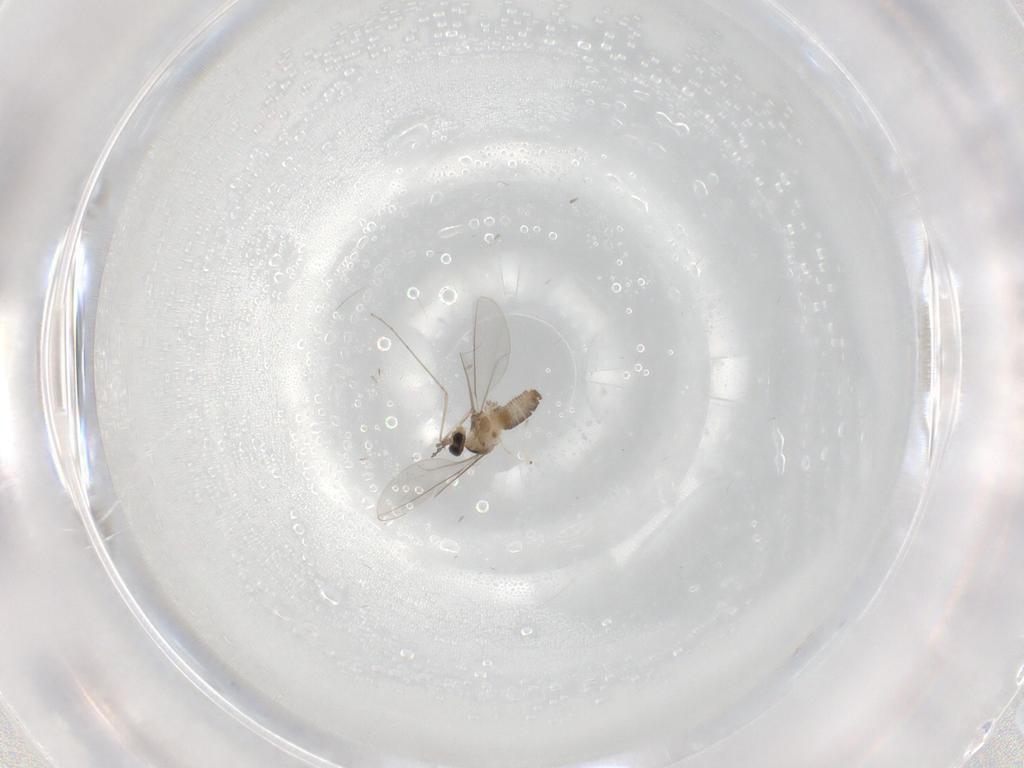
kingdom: Animalia
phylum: Arthropoda
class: Insecta
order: Diptera
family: Cecidomyiidae
